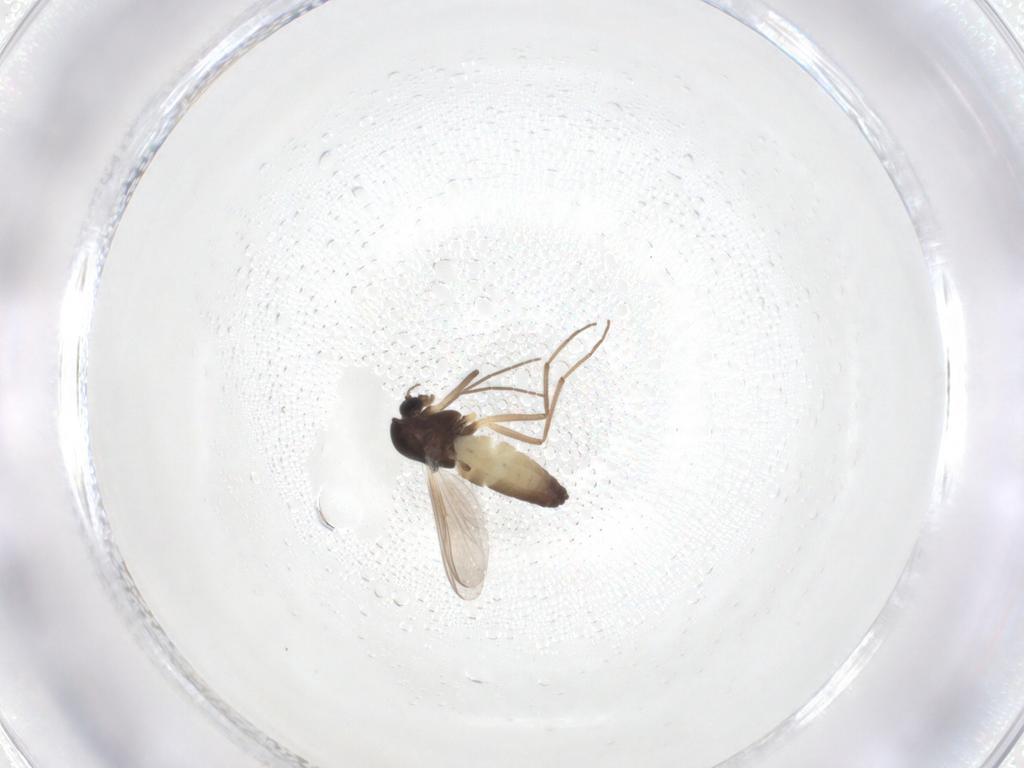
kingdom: Animalia
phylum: Arthropoda
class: Insecta
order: Diptera
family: Chironomidae
